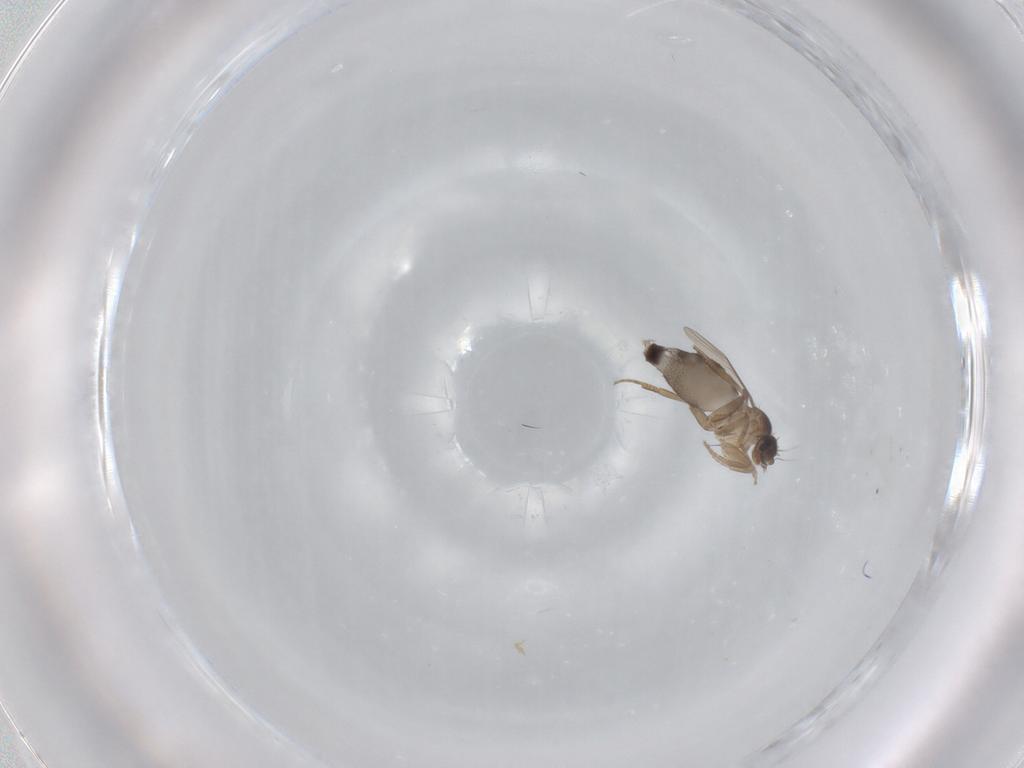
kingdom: Animalia
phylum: Arthropoda
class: Insecta
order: Diptera
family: Phoridae
